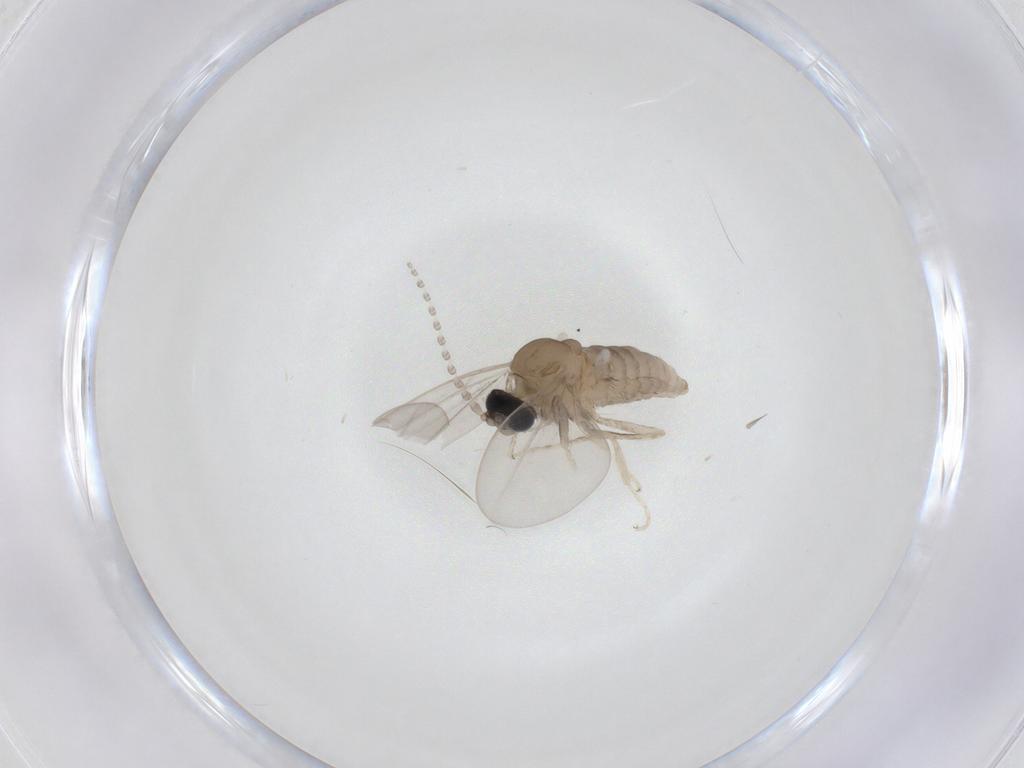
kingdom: Animalia
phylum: Arthropoda
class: Insecta
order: Diptera
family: Cecidomyiidae
